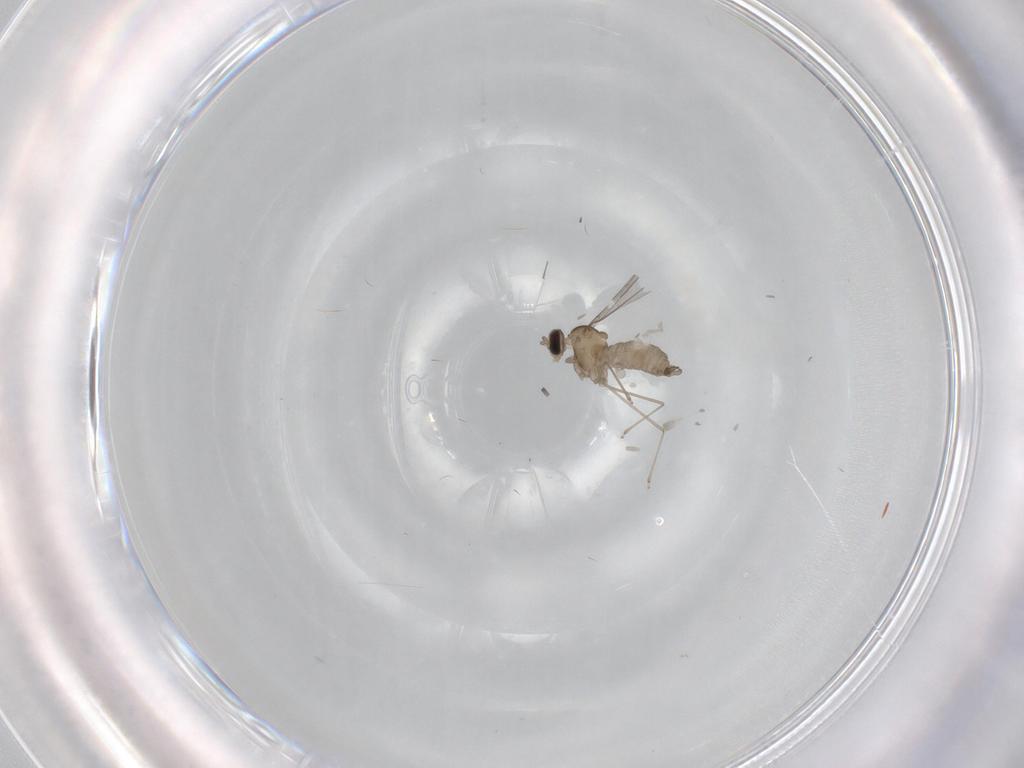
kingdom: Animalia
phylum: Arthropoda
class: Insecta
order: Diptera
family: Cecidomyiidae
